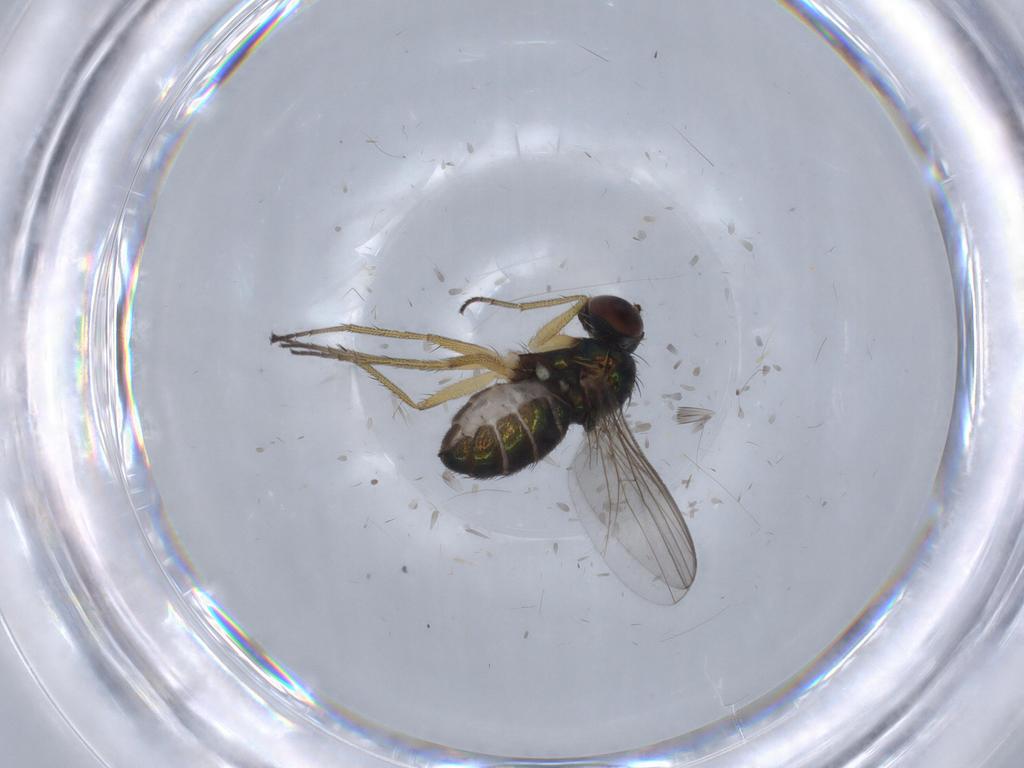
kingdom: Animalia
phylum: Arthropoda
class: Insecta
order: Diptera
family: Dolichopodidae
